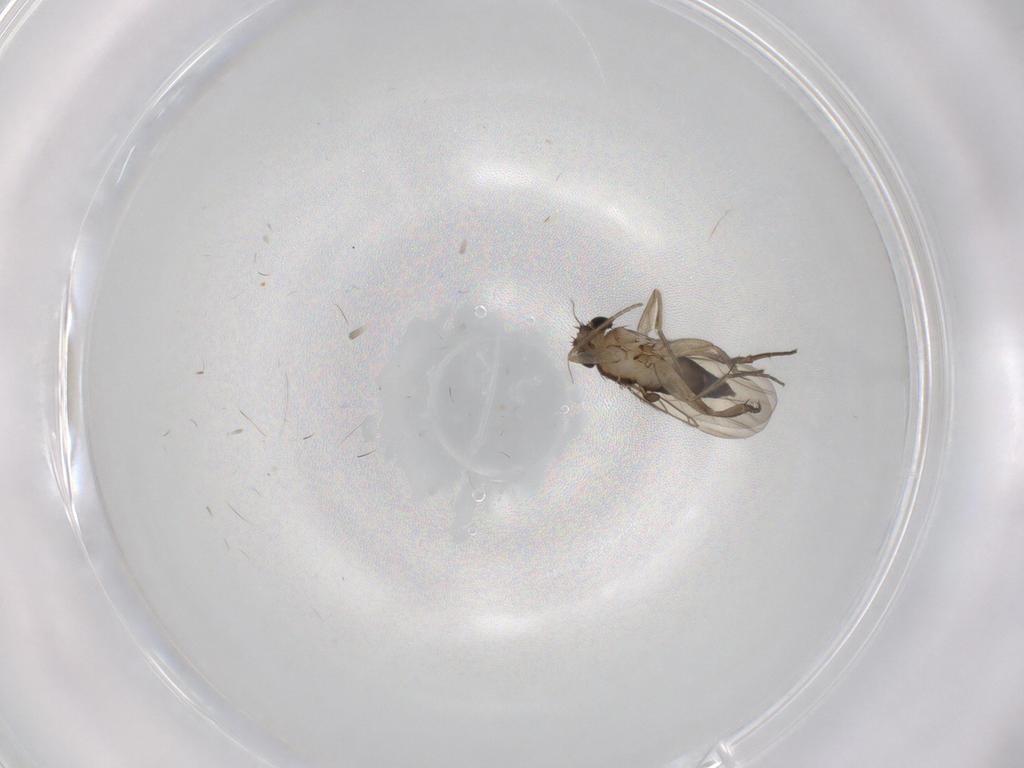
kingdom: Animalia
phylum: Arthropoda
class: Insecta
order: Diptera
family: Phoridae
